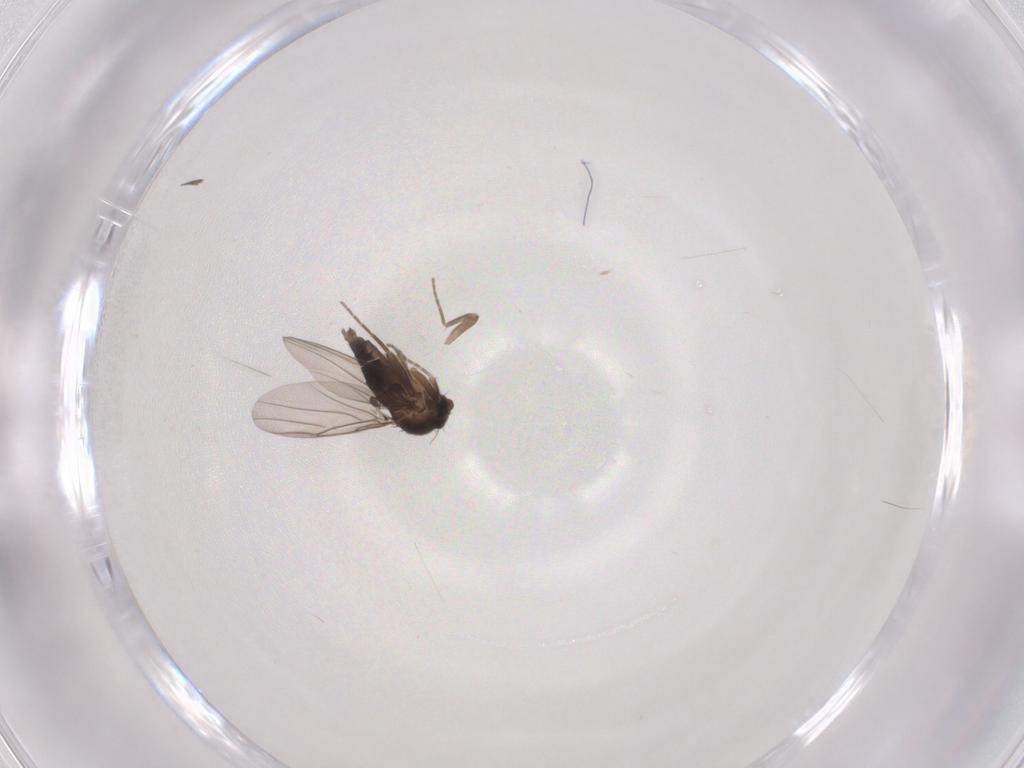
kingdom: Animalia
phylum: Arthropoda
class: Insecta
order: Diptera
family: Phoridae
